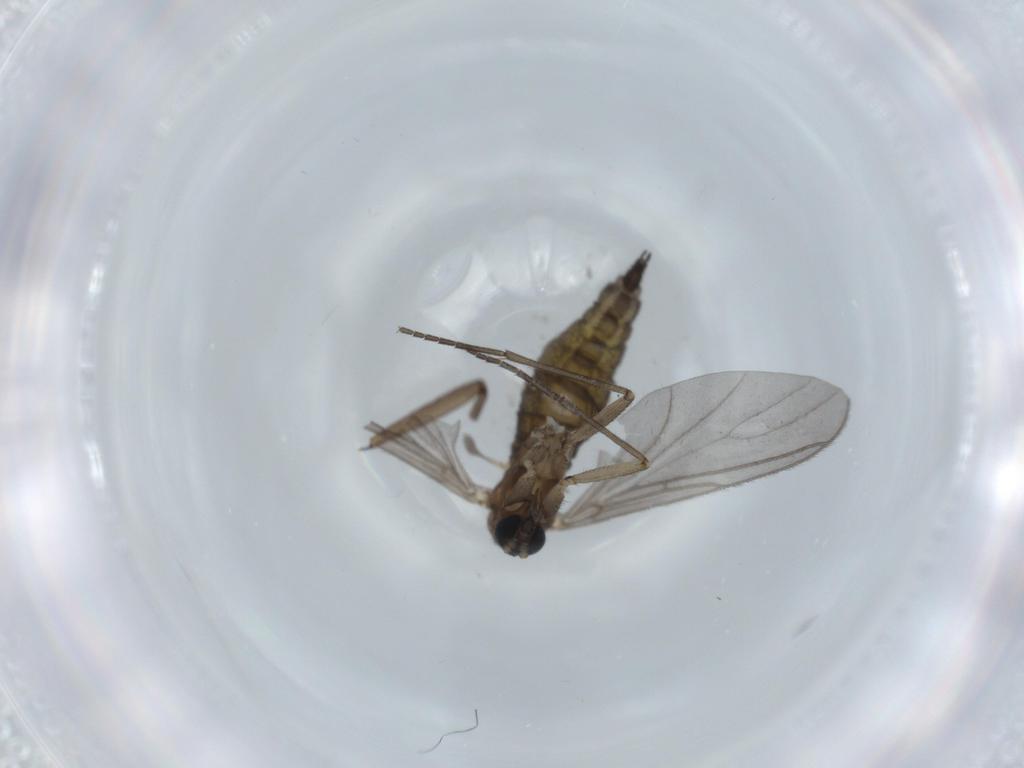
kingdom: Animalia
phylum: Arthropoda
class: Insecta
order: Diptera
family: Sciaridae
